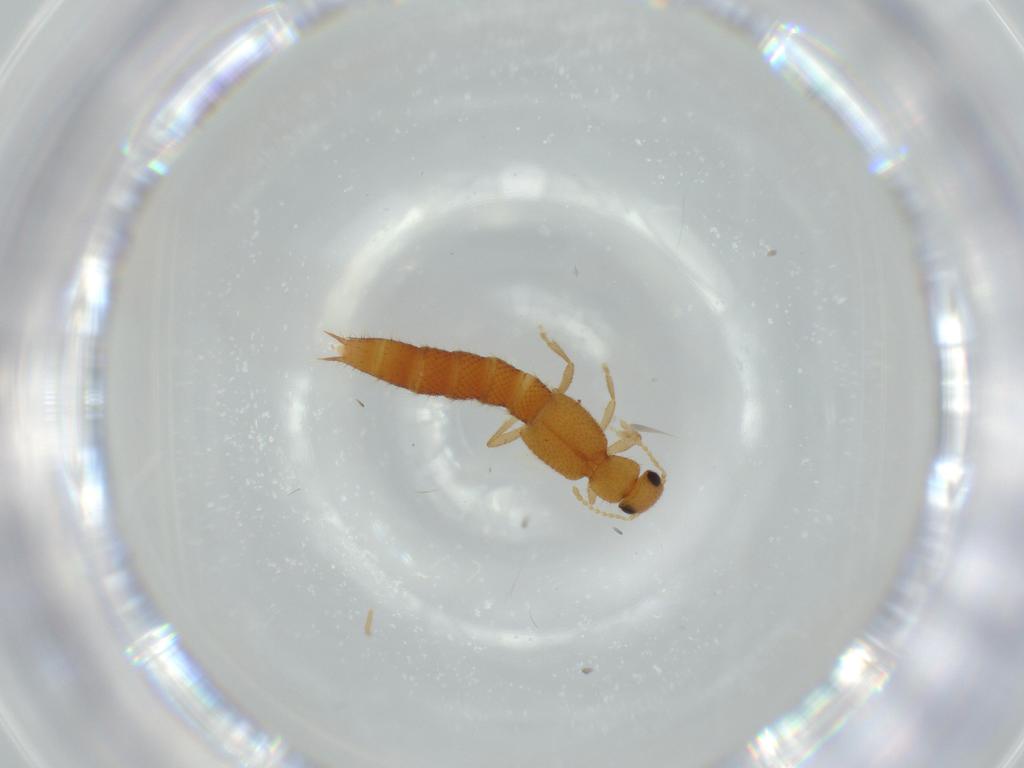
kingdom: Animalia
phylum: Arthropoda
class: Insecta
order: Coleoptera
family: Staphylinidae
